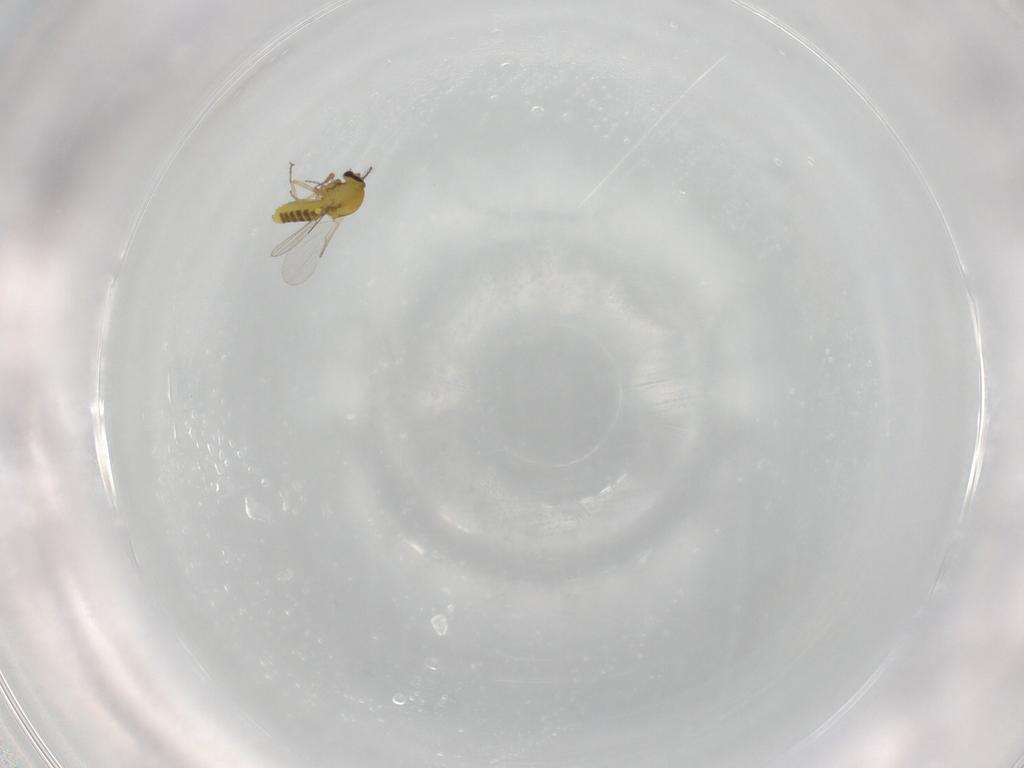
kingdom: Animalia
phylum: Arthropoda
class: Insecta
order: Diptera
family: Ceratopogonidae
